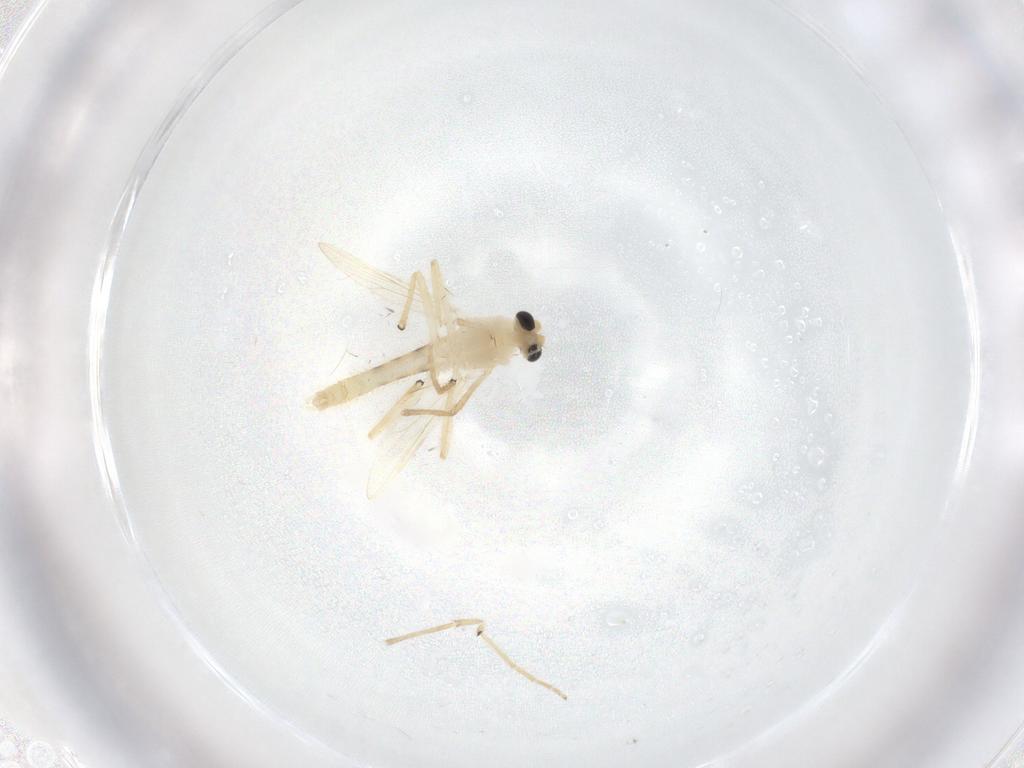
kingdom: Animalia
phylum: Arthropoda
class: Insecta
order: Diptera
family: Chironomidae
